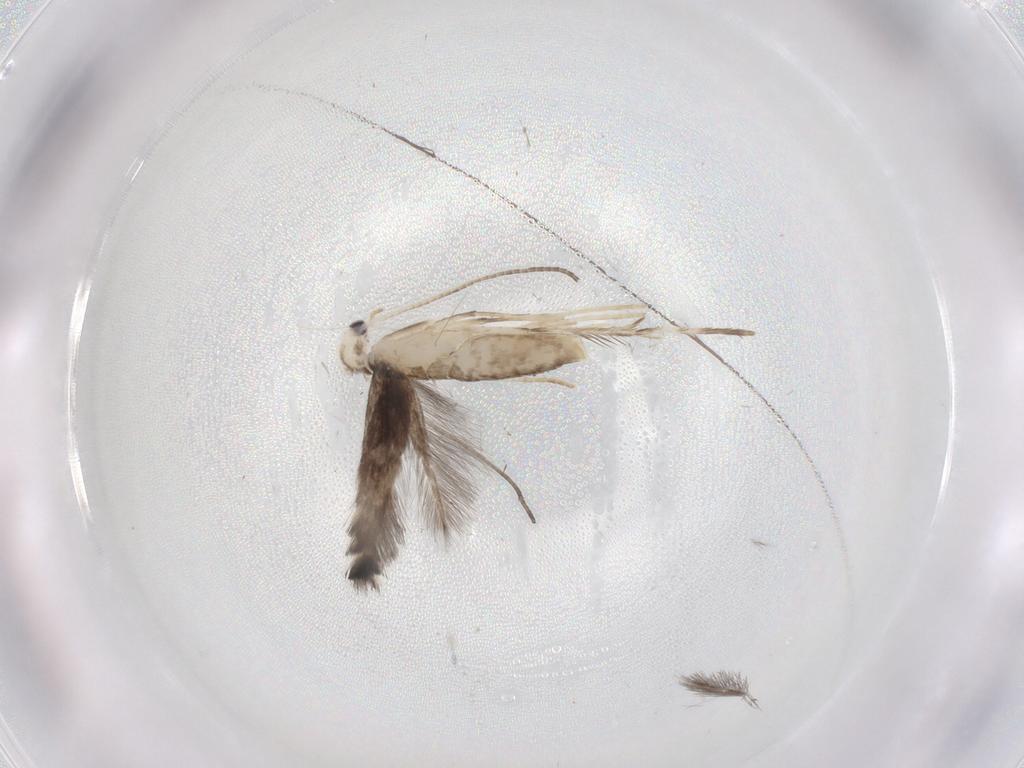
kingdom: Animalia
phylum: Arthropoda
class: Insecta
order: Lepidoptera
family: Gracillariidae
